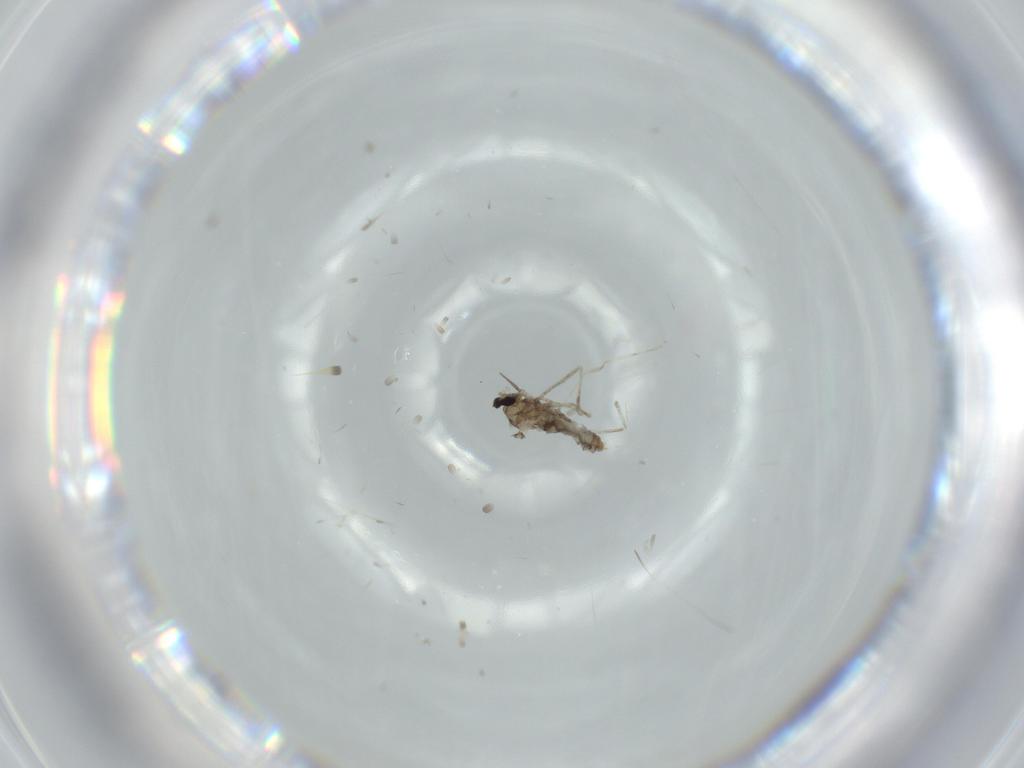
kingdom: Animalia
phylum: Arthropoda
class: Insecta
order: Diptera
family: Cecidomyiidae
